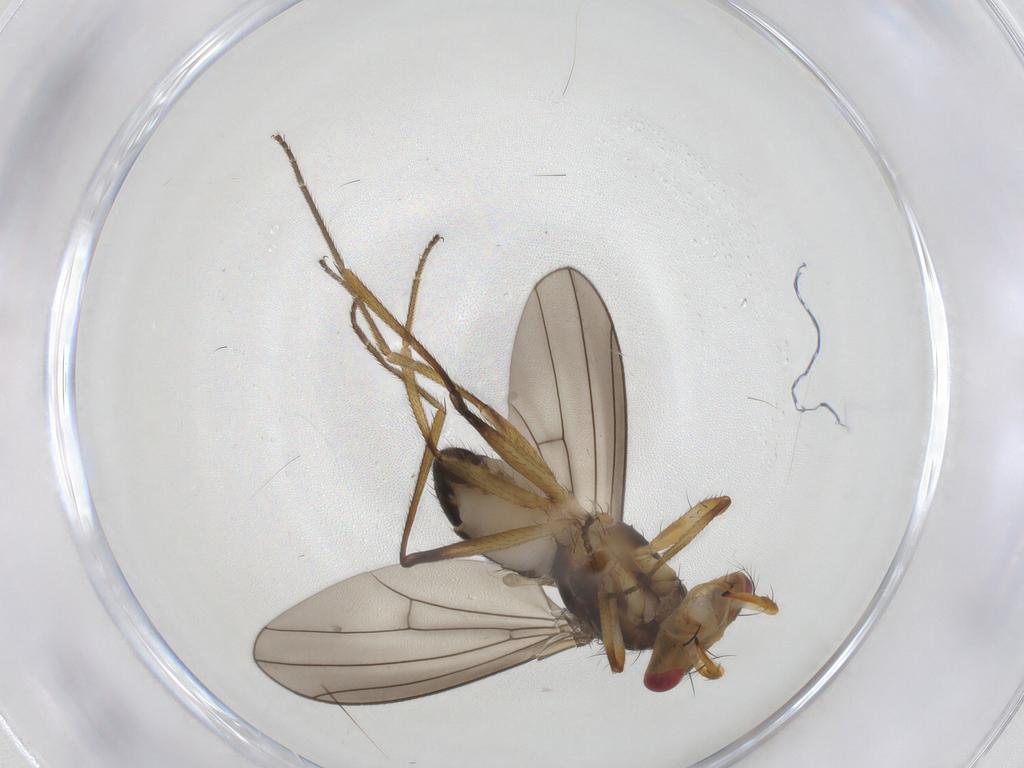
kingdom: Animalia
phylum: Arthropoda
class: Insecta
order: Diptera
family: Drosophilidae
